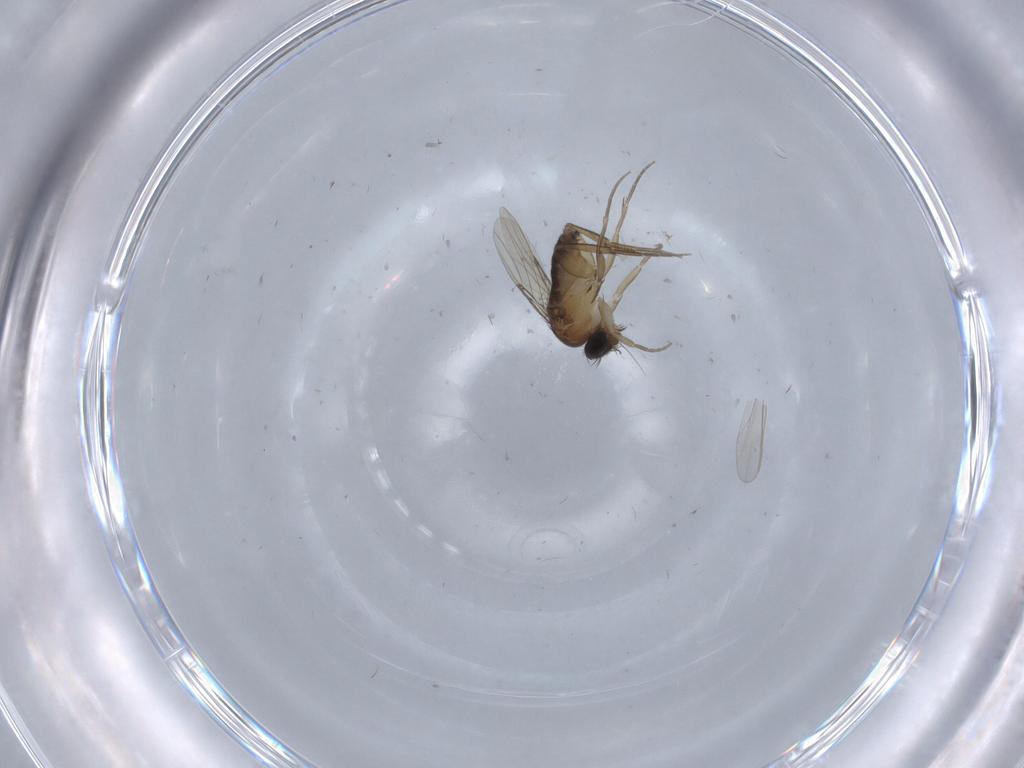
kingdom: Animalia
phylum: Arthropoda
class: Insecta
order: Diptera
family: Phoridae
